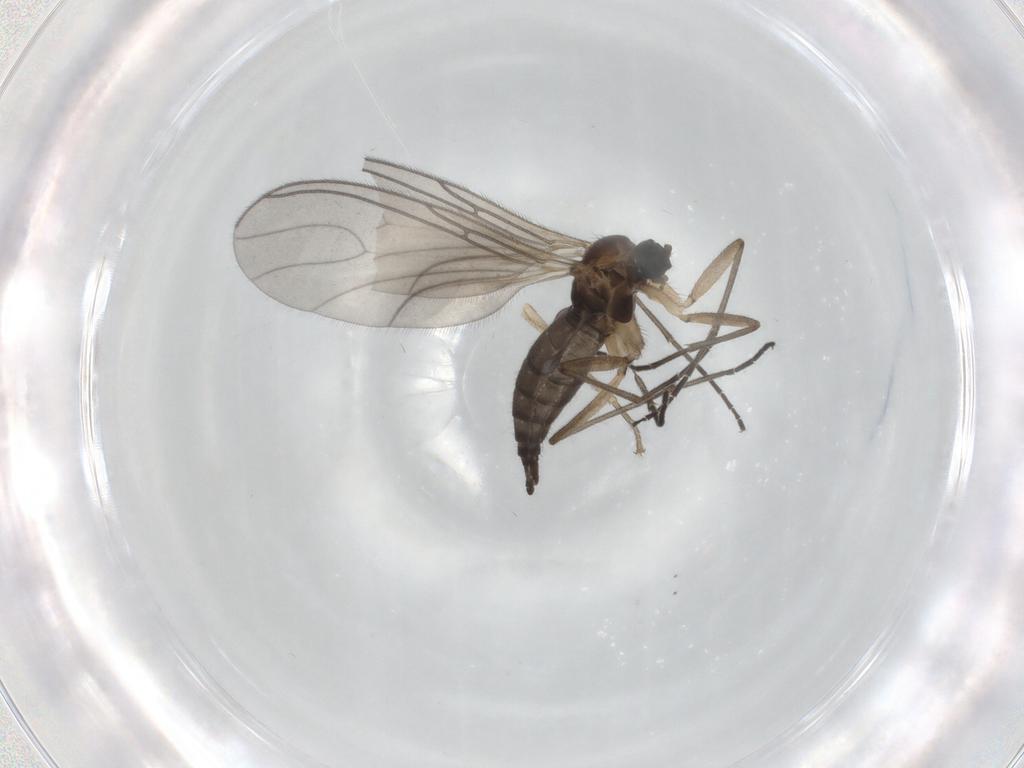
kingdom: Animalia
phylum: Arthropoda
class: Insecta
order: Diptera
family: Sciaridae
